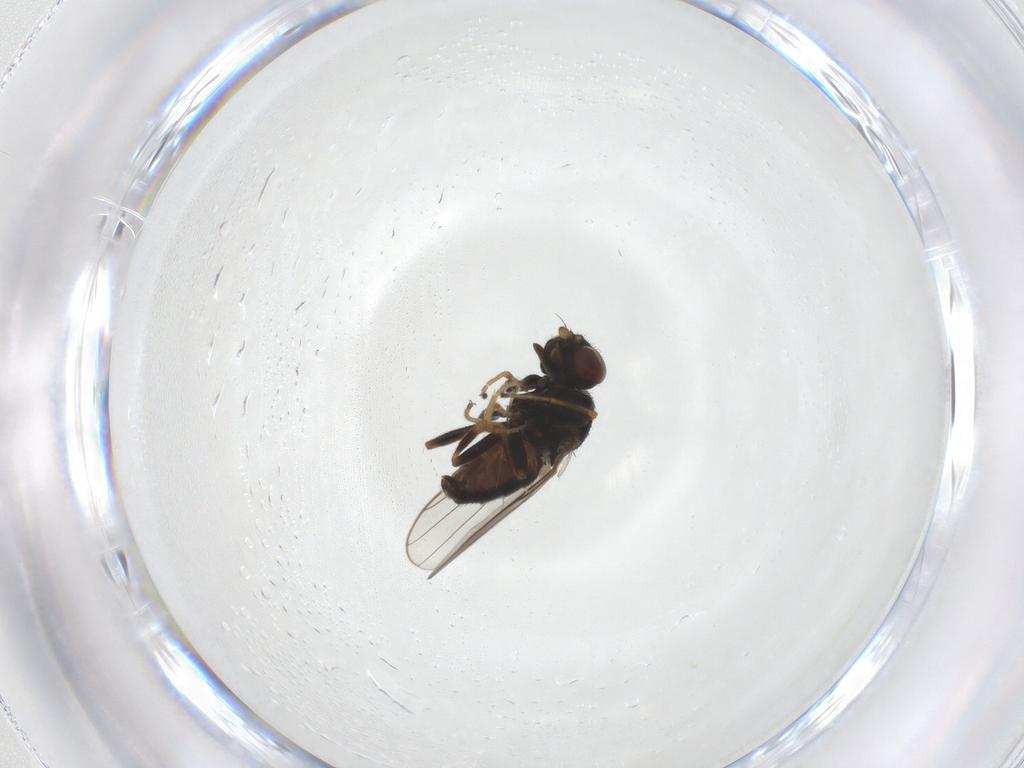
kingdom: Animalia
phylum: Arthropoda
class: Insecta
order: Diptera
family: Chloropidae
